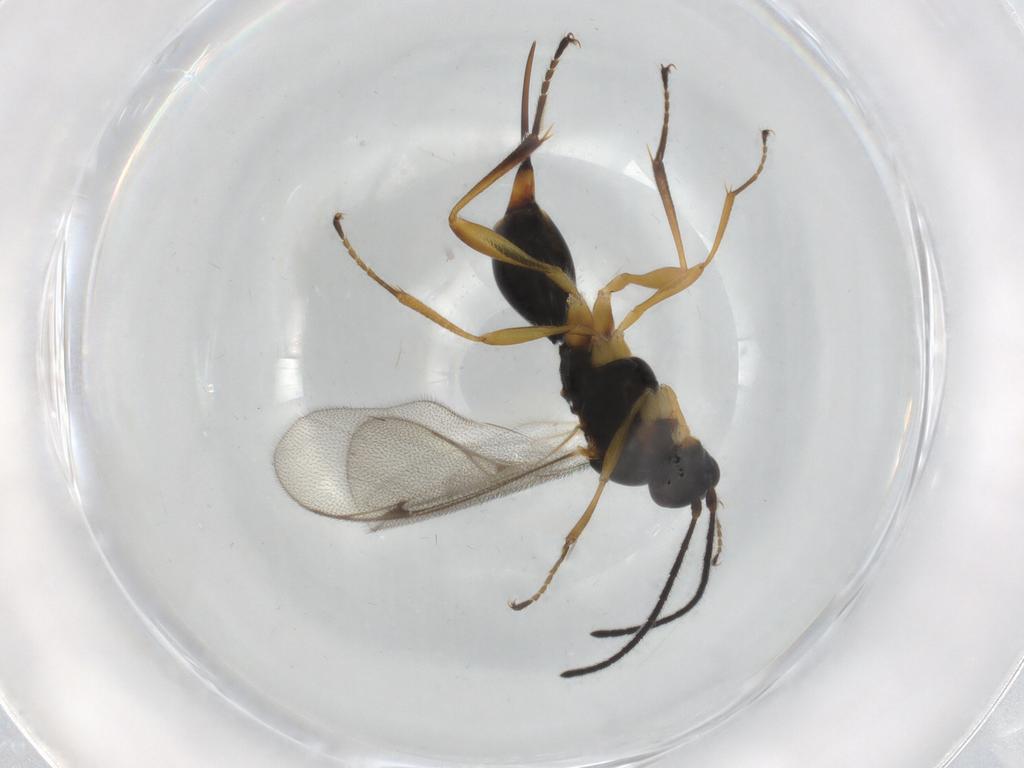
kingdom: Animalia
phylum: Arthropoda
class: Insecta
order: Hymenoptera
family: Proctotrupidae
